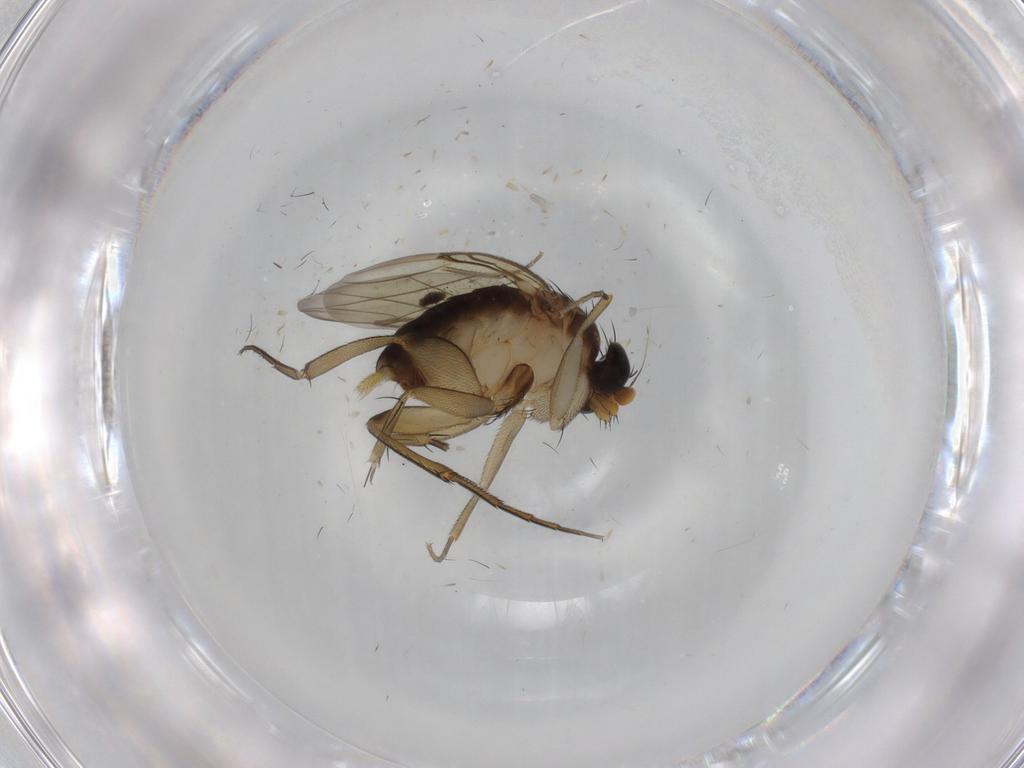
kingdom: Animalia
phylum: Arthropoda
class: Insecta
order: Diptera
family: Phoridae
